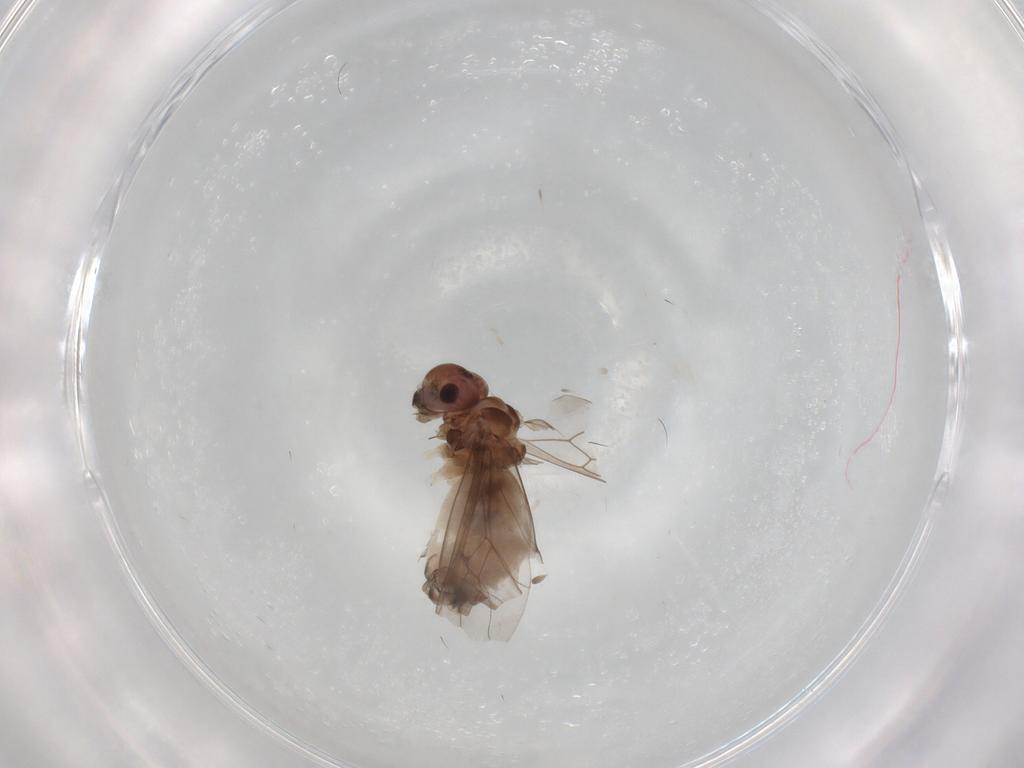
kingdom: Animalia
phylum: Arthropoda
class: Insecta
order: Psocodea
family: Peripsocidae
